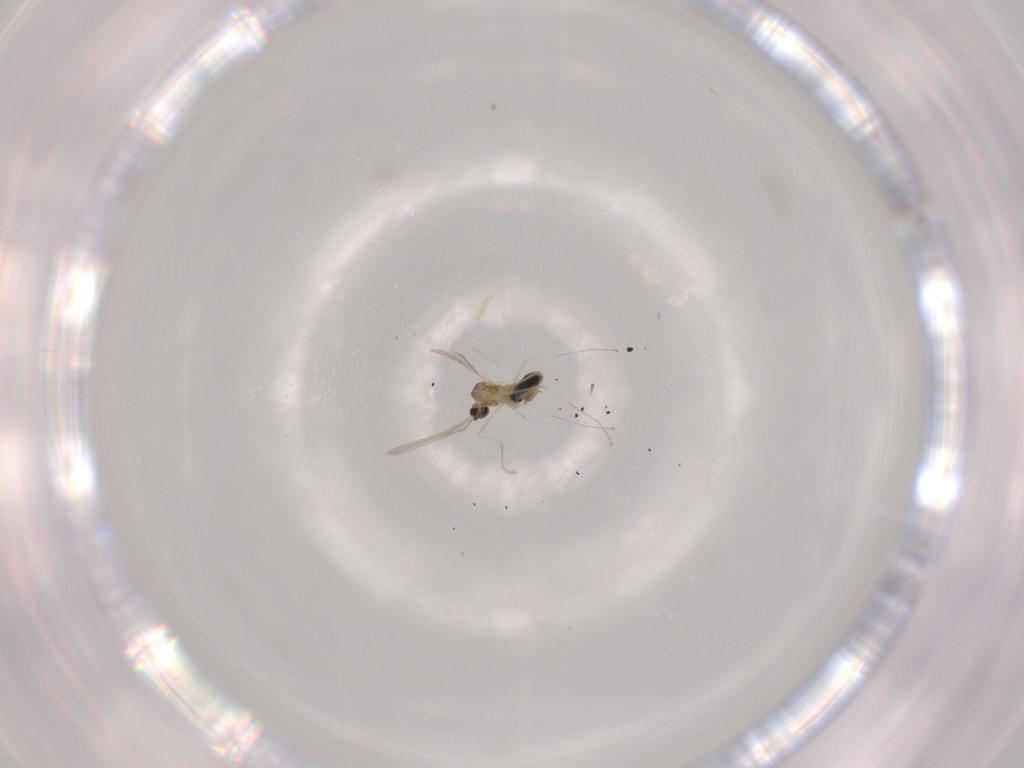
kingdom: Animalia
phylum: Arthropoda
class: Insecta
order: Diptera
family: Cecidomyiidae
